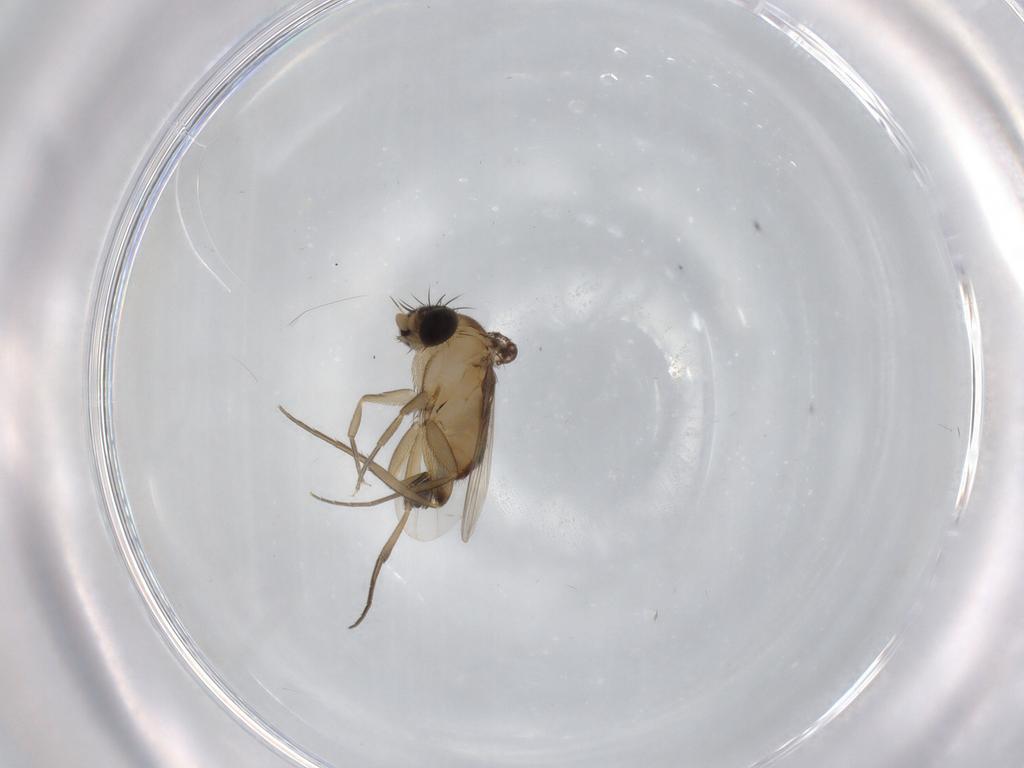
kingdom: Animalia
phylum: Arthropoda
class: Insecta
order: Diptera
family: Phoridae
